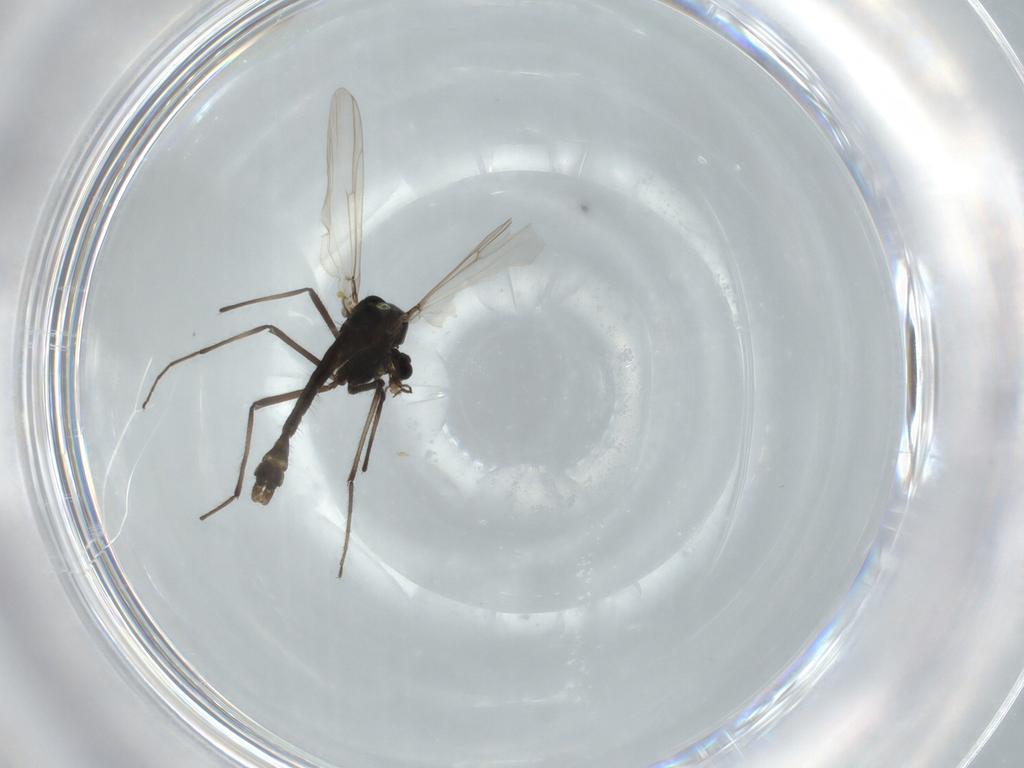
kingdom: Animalia
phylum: Arthropoda
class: Insecta
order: Diptera
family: Chironomidae
